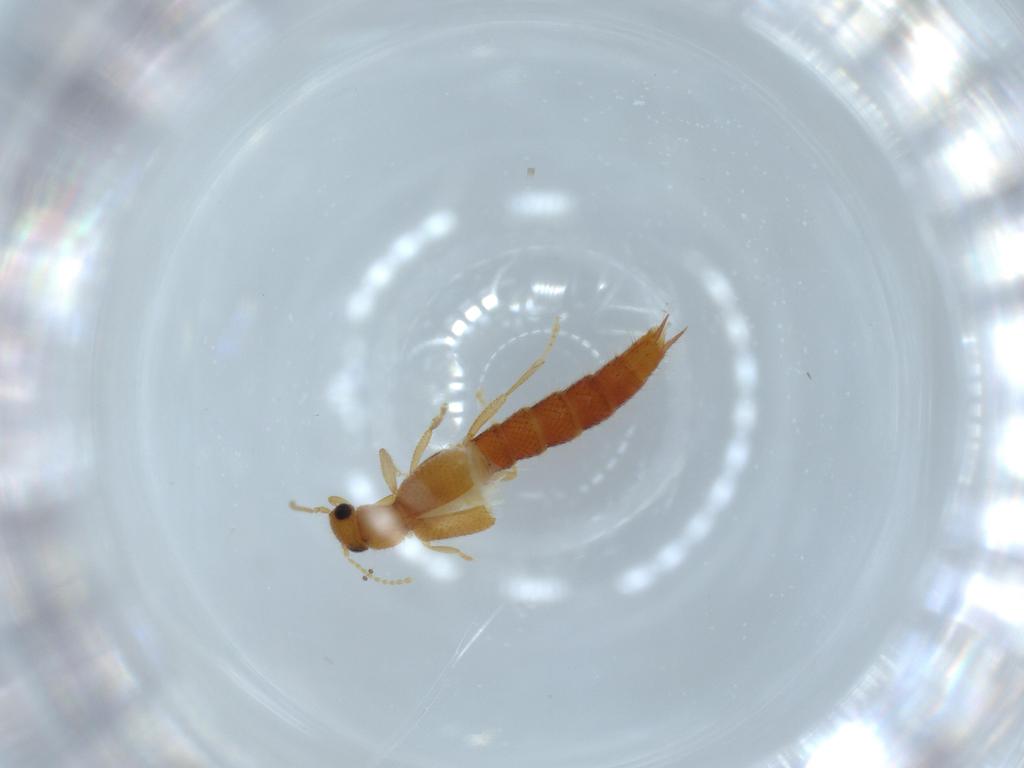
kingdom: Animalia
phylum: Arthropoda
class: Insecta
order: Coleoptera
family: Staphylinidae
